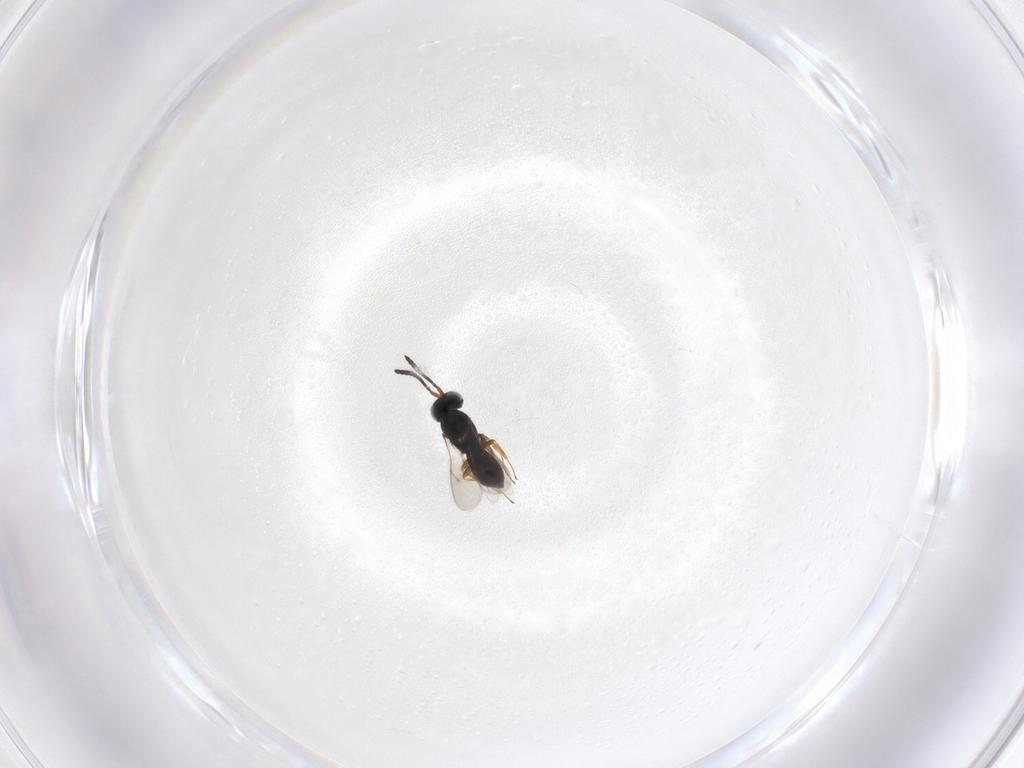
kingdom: Animalia
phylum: Arthropoda
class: Insecta
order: Hymenoptera
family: Scelionidae
